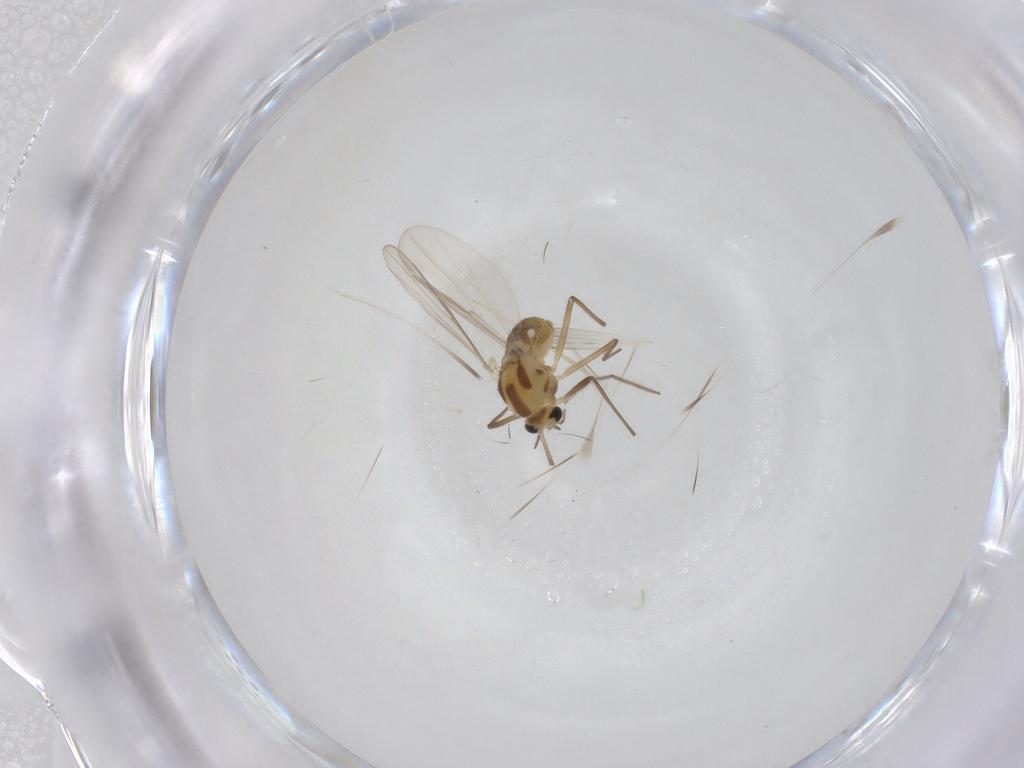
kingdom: Animalia
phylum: Arthropoda
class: Insecta
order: Diptera
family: Chironomidae
